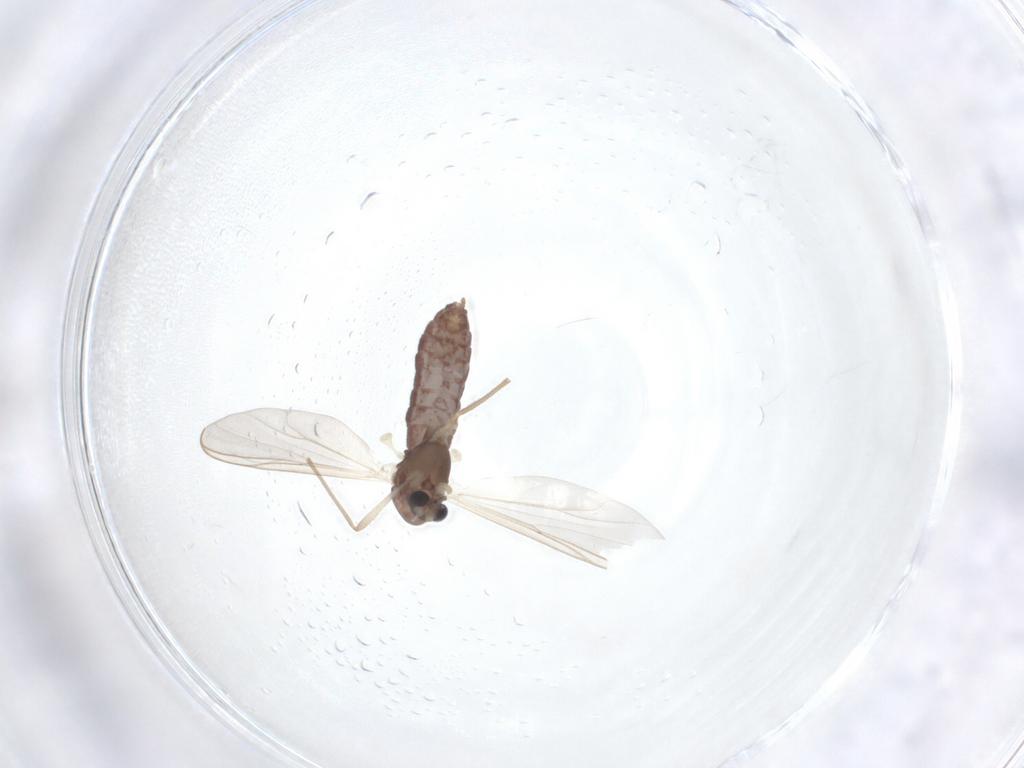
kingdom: Animalia
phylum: Arthropoda
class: Insecta
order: Diptera
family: Chironomidae
